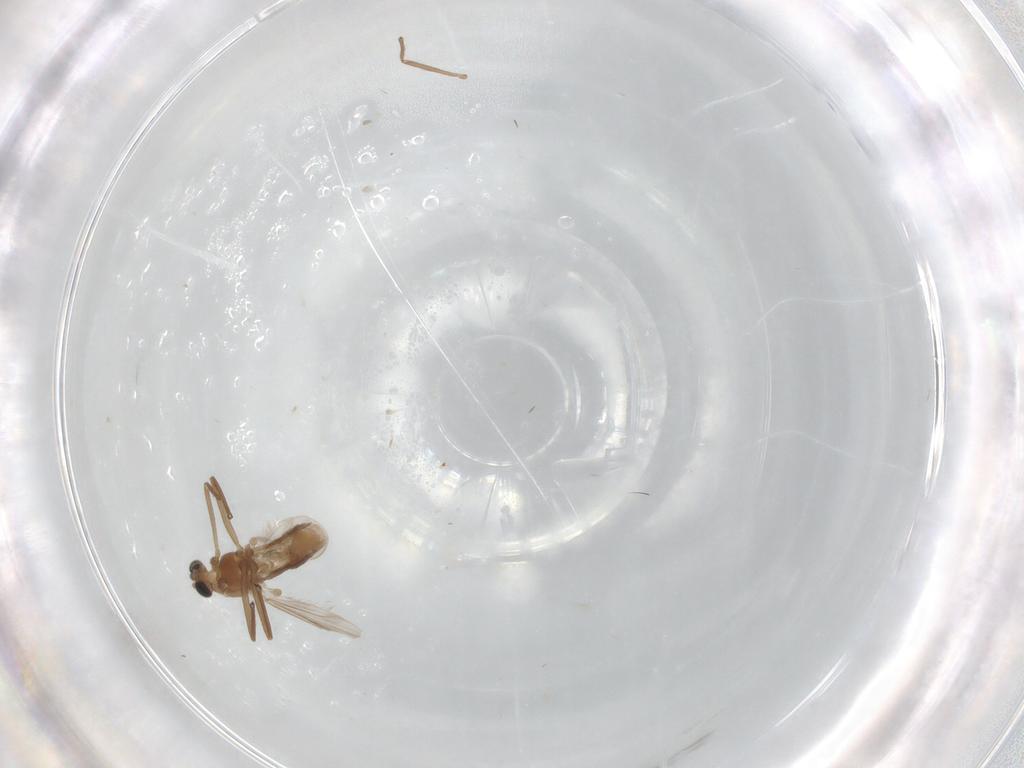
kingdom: Animalia
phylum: Arthropoda
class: Insecta
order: Diptera
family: Chironomidae
